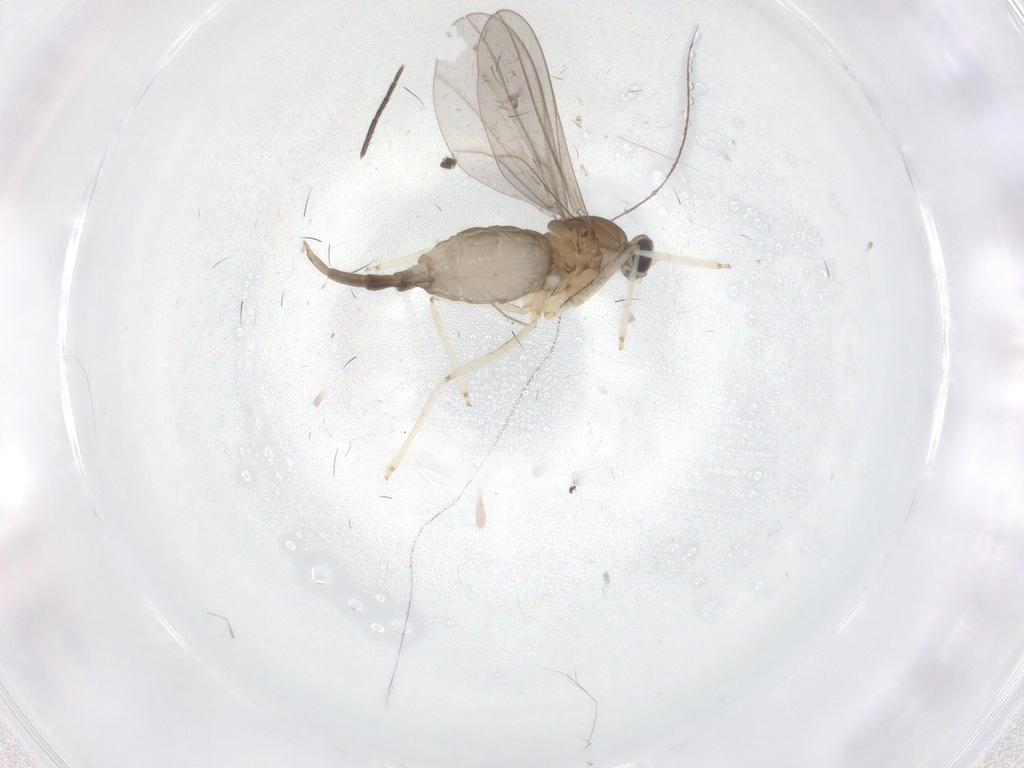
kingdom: Animalia
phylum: Arthropoda
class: Insecta
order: Diptera
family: Cecidomyiidae
